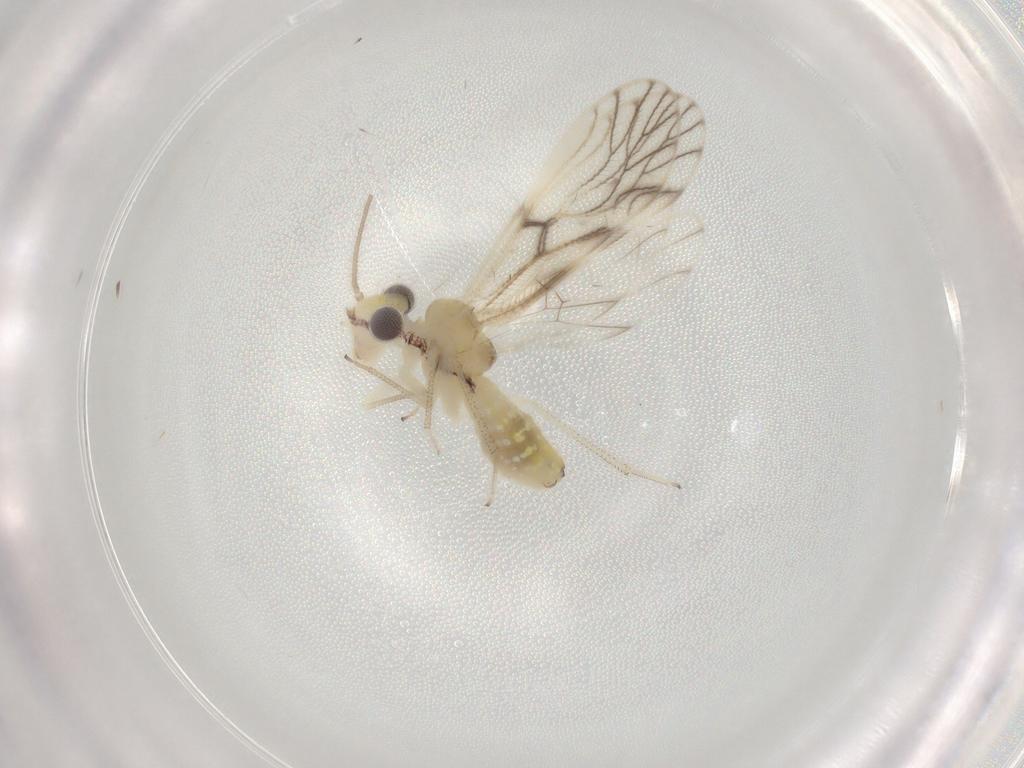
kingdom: Animalia
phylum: Arthropoda
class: Insecta
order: Psocodea
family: Philotarsidae
